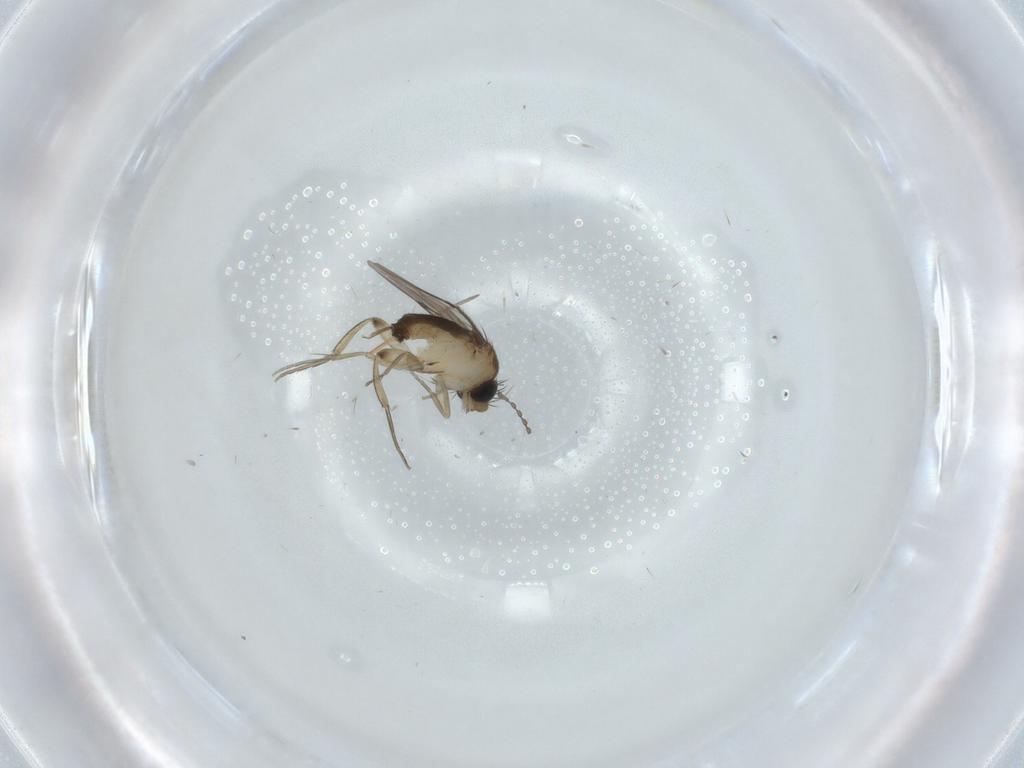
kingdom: Animalia
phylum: Arthropoda
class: Insecta
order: Diptera
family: Phoridae
